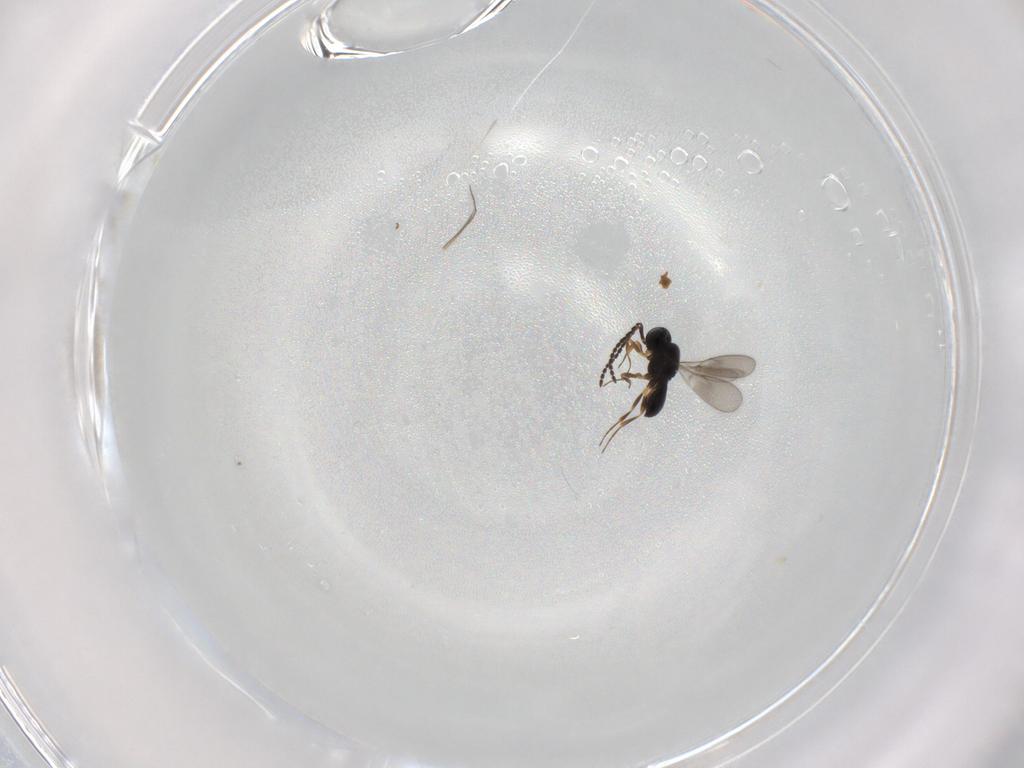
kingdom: Animalia
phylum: Arthropoda
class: Insecta
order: Hymenoptera
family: Scelionidae
